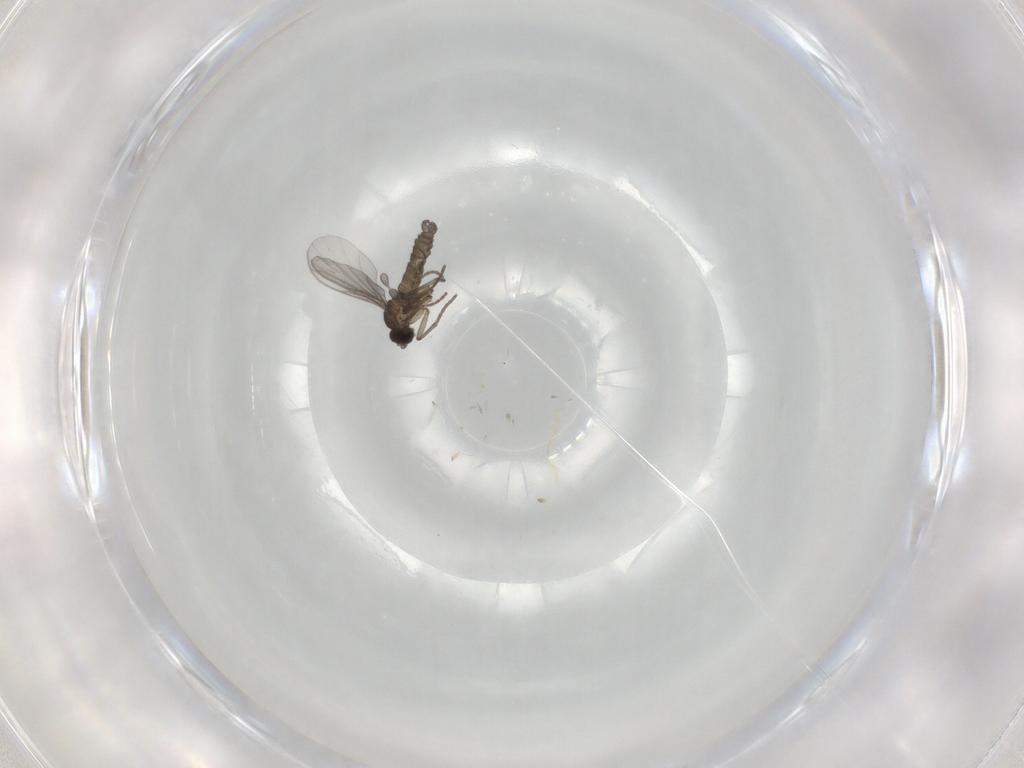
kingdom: Animalia
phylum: Arthropoda
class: Insecta
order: Diptera
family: Sciaridae
